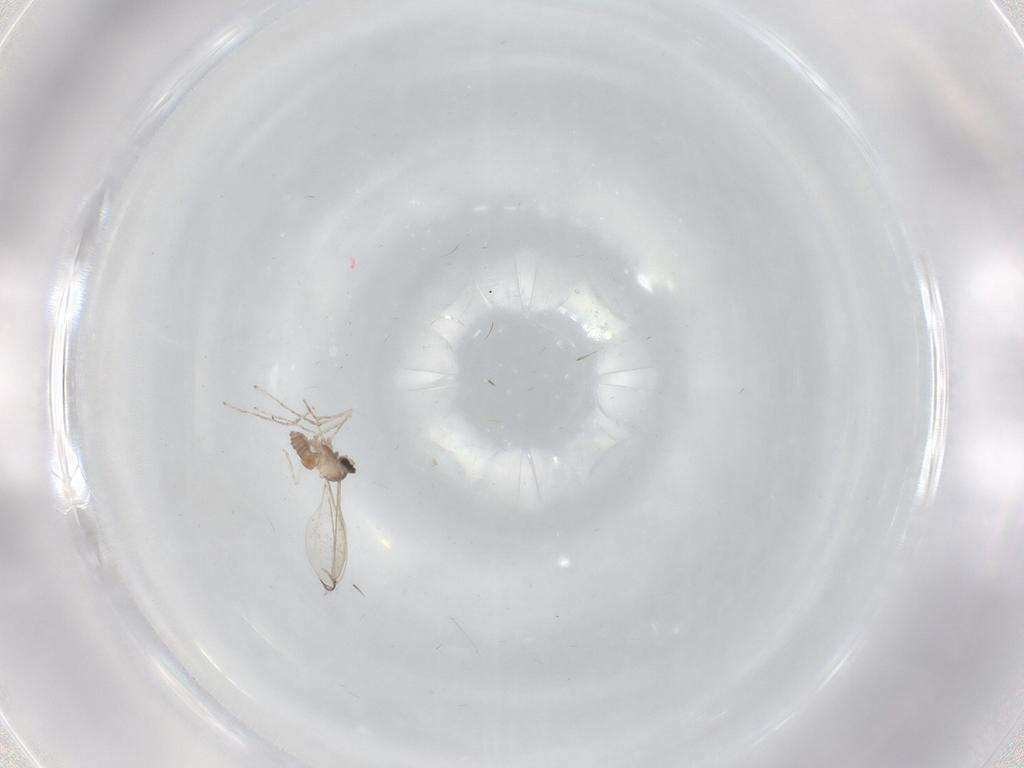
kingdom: Animalia
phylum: Arthropoda
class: Insecta
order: Diptera
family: Cecidomyiidae
